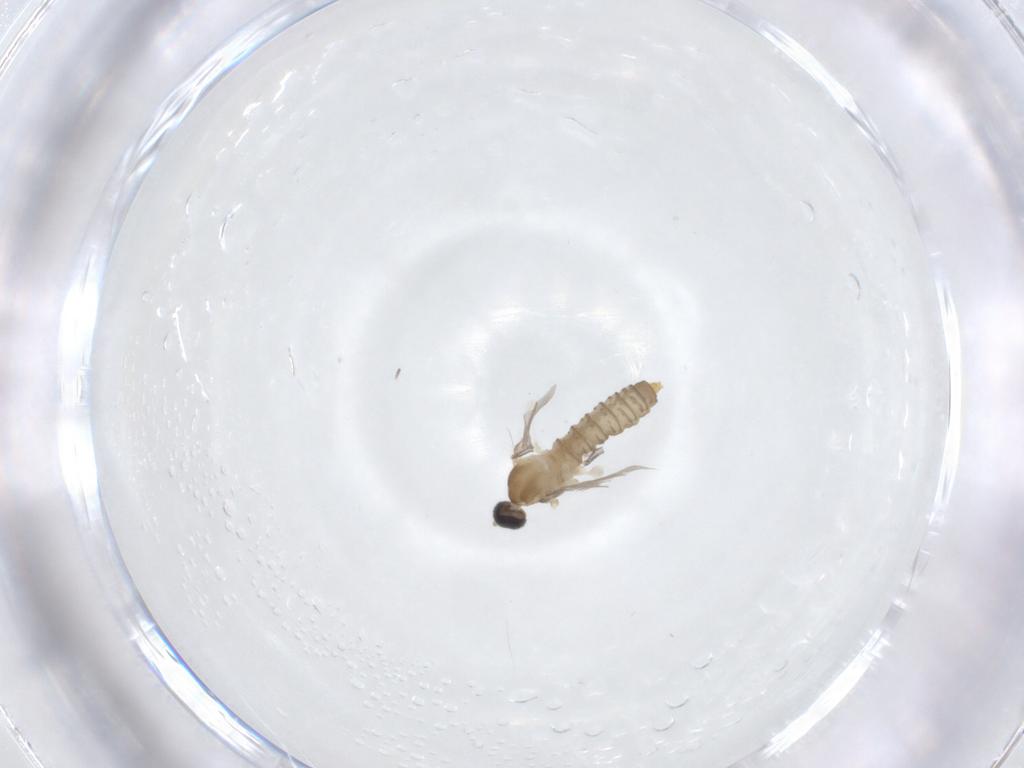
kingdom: Animalia
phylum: Arthropoda
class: Insecta
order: Diptera
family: Cecidomyiidae
